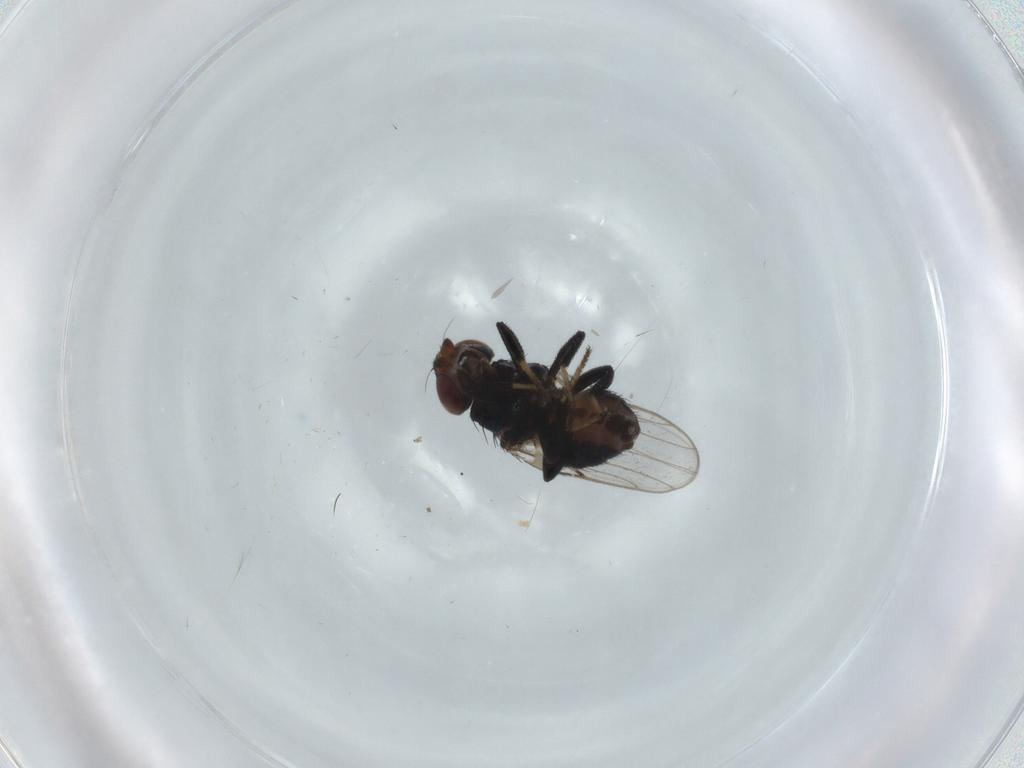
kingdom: Animalia
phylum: Arthropoda
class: Insecta
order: Diptera
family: Chloropidae
